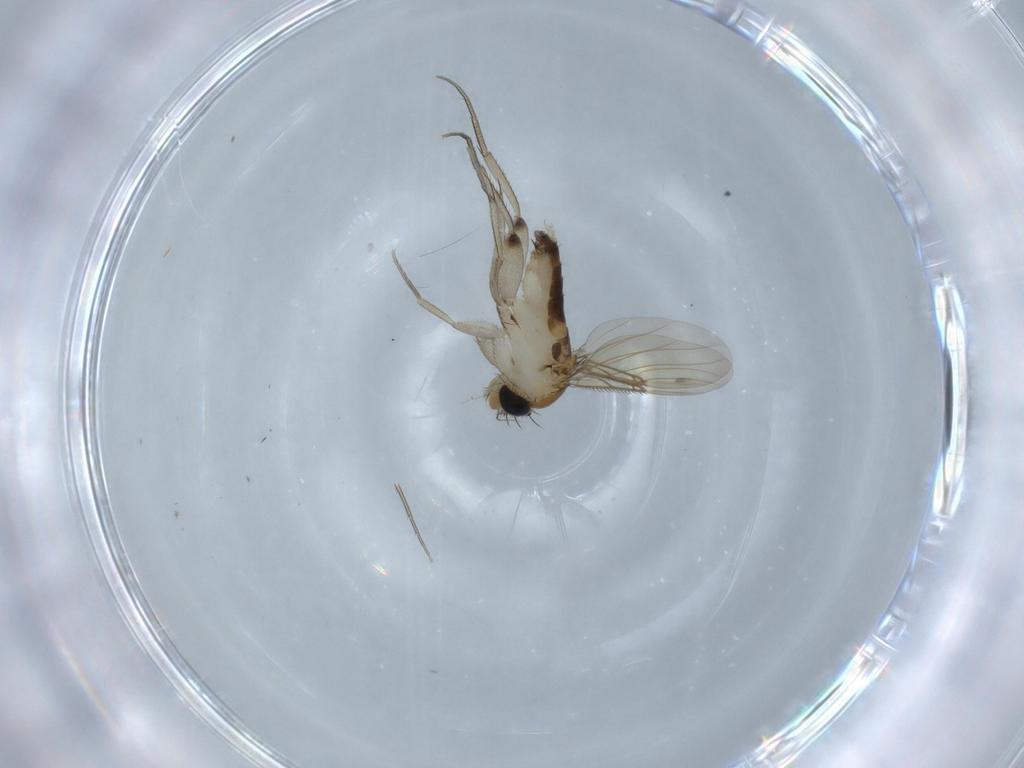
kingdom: Animalia
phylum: Arthropoda
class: Insecta
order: Diptera
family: Phoridae
